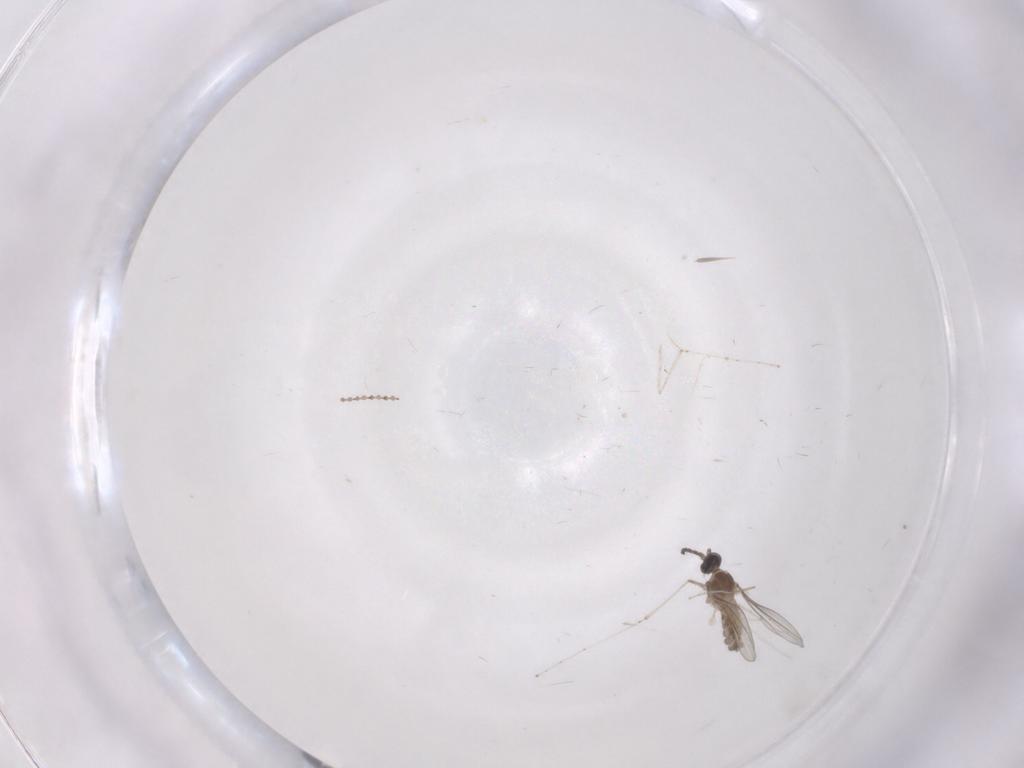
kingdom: Animalia
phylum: Arthropoda
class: Insecta
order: Diptera
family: Cecidomyiidae
